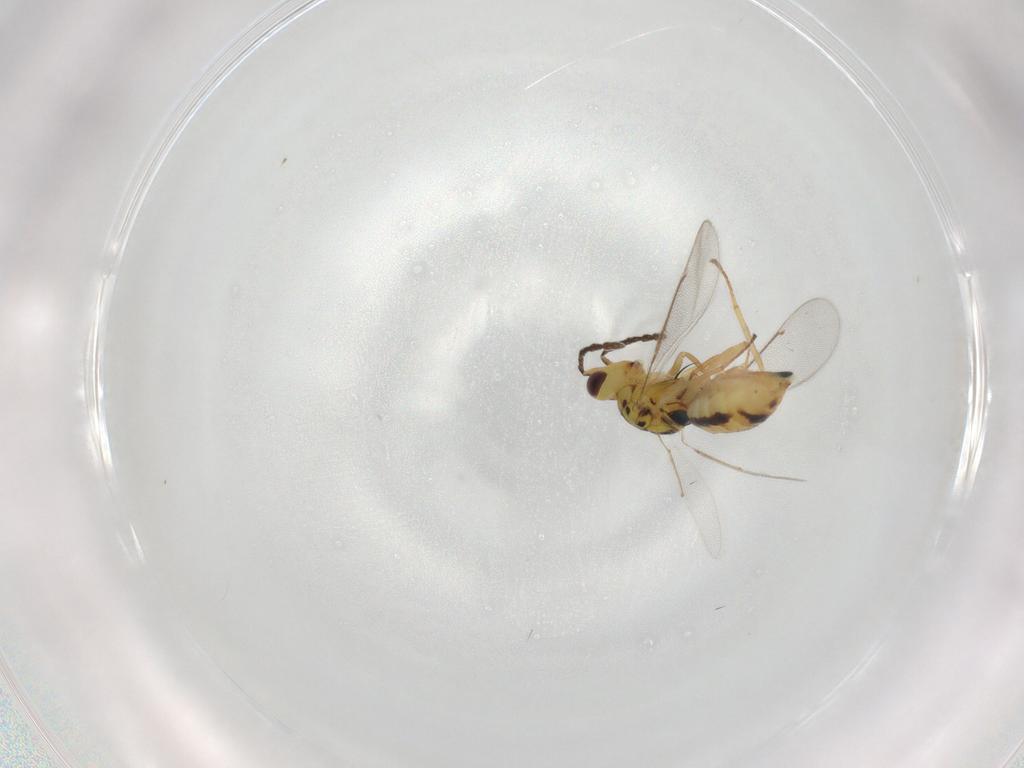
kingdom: Animalia
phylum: Arthropoda
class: Insecta
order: Hymenoptera
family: Eulophidae
